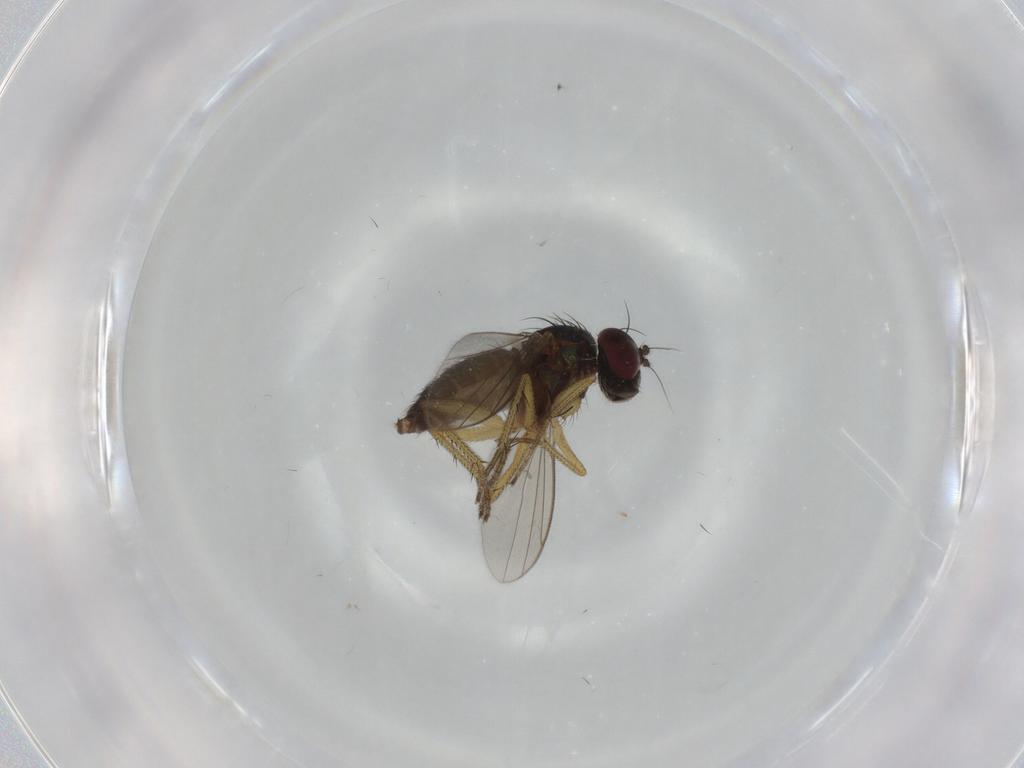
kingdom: Animalia
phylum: Arthropoda
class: Insecta
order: Diptera
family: Dolichopodidae
